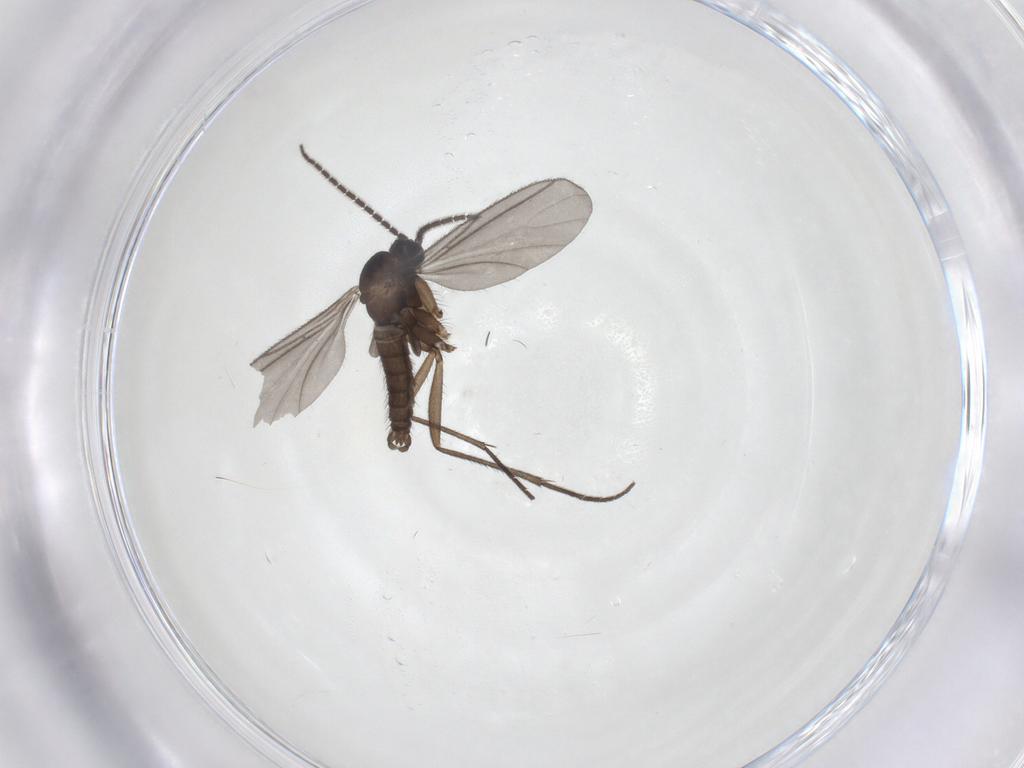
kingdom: Animalia
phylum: Arthropoda
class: Insecta
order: Diptera
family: Sciaridae
